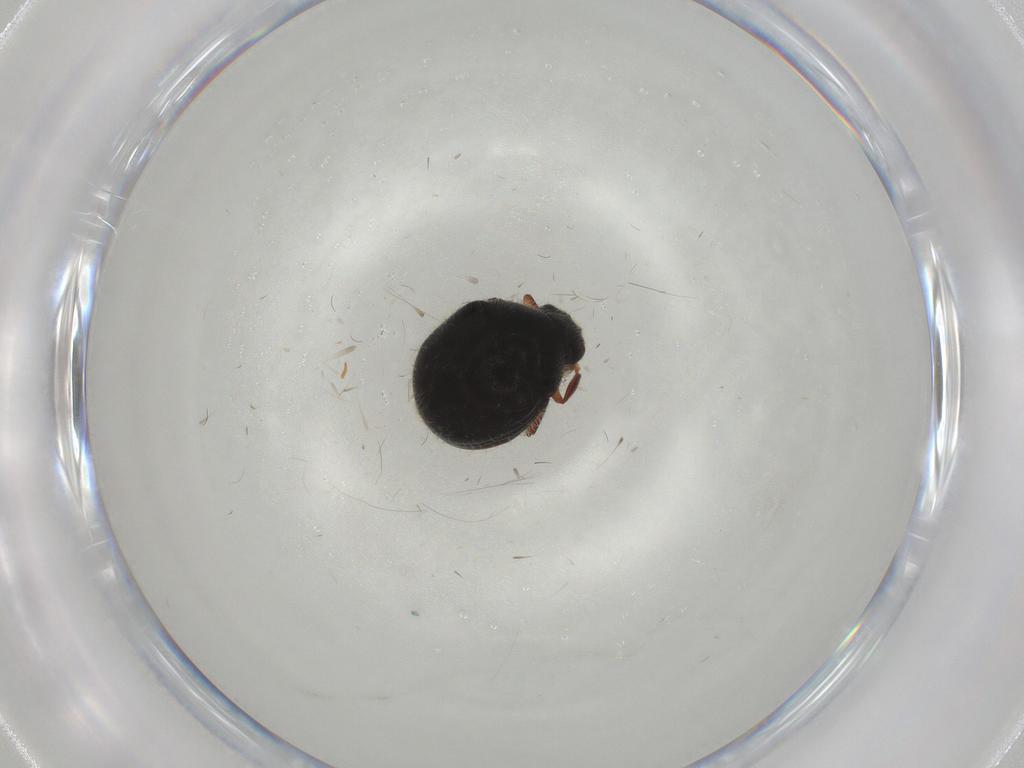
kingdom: Animalia
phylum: Arthropoda
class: Insecta
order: Coleoptera
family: Ptinidae
